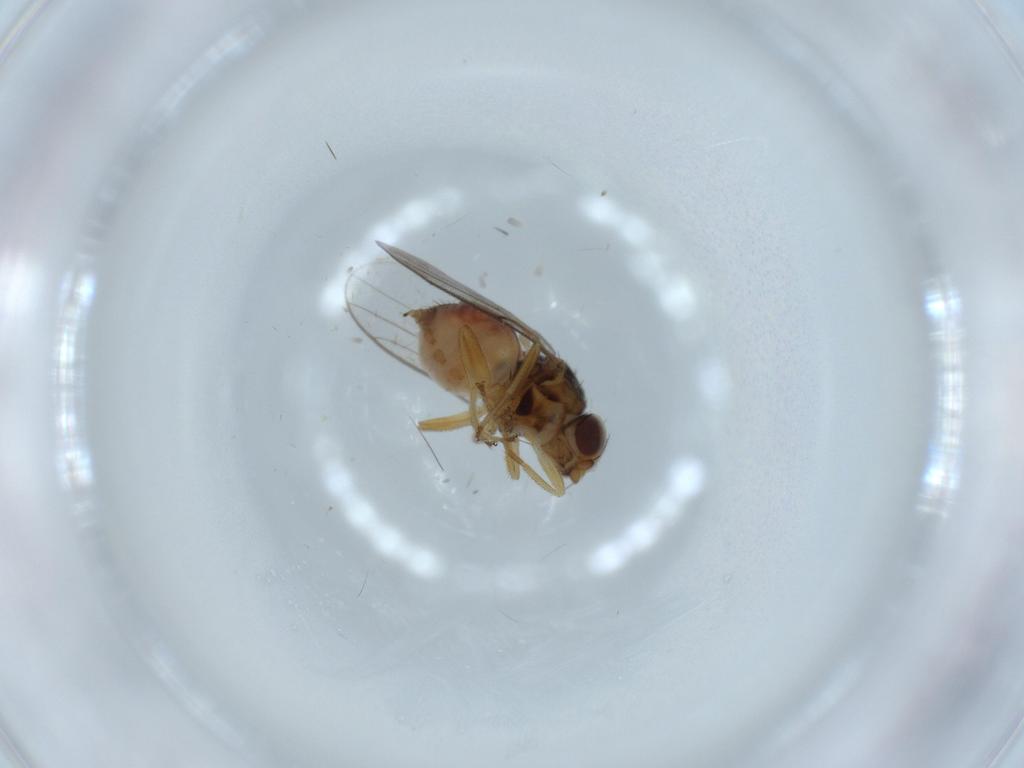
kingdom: Animalia
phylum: Arthropoda
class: Insecta
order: Diptera
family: Chloropidae
